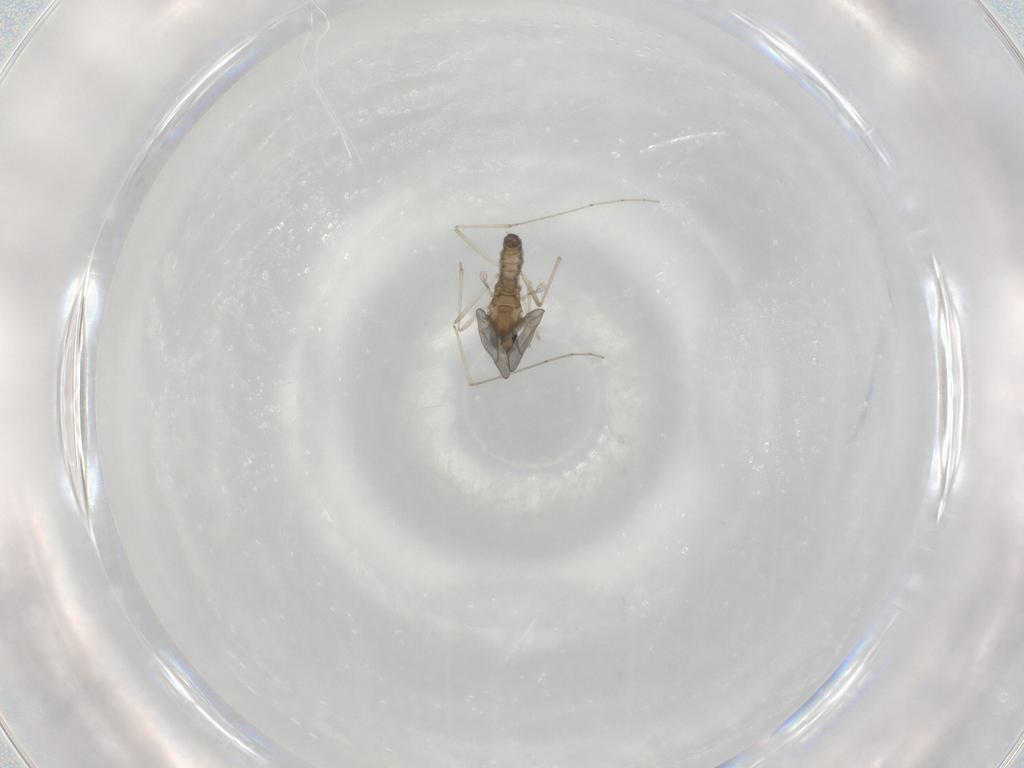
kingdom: Animalia
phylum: Arthropoda
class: Insecta
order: Diptera
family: Cecidomyiidae
